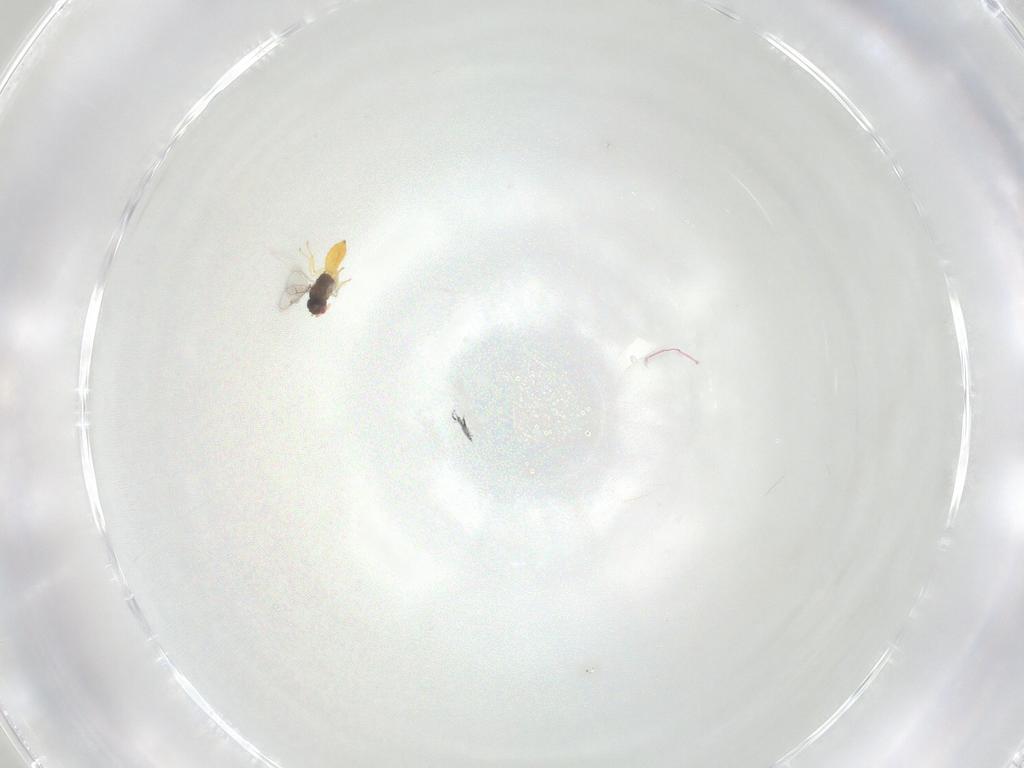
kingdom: Animalia
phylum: Arthropoda
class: Insecta
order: Hymenoptera
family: Eulophidae
